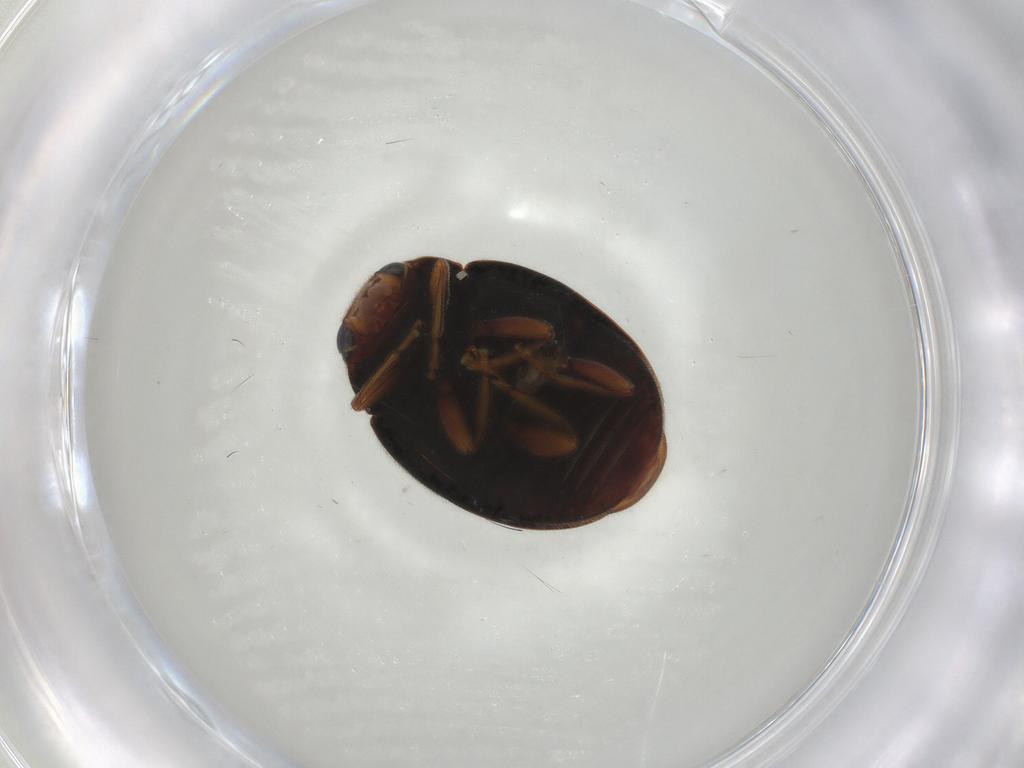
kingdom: Animalia
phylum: Arthropoda
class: Insecta
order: Coleoptera
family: Coccinellidae
